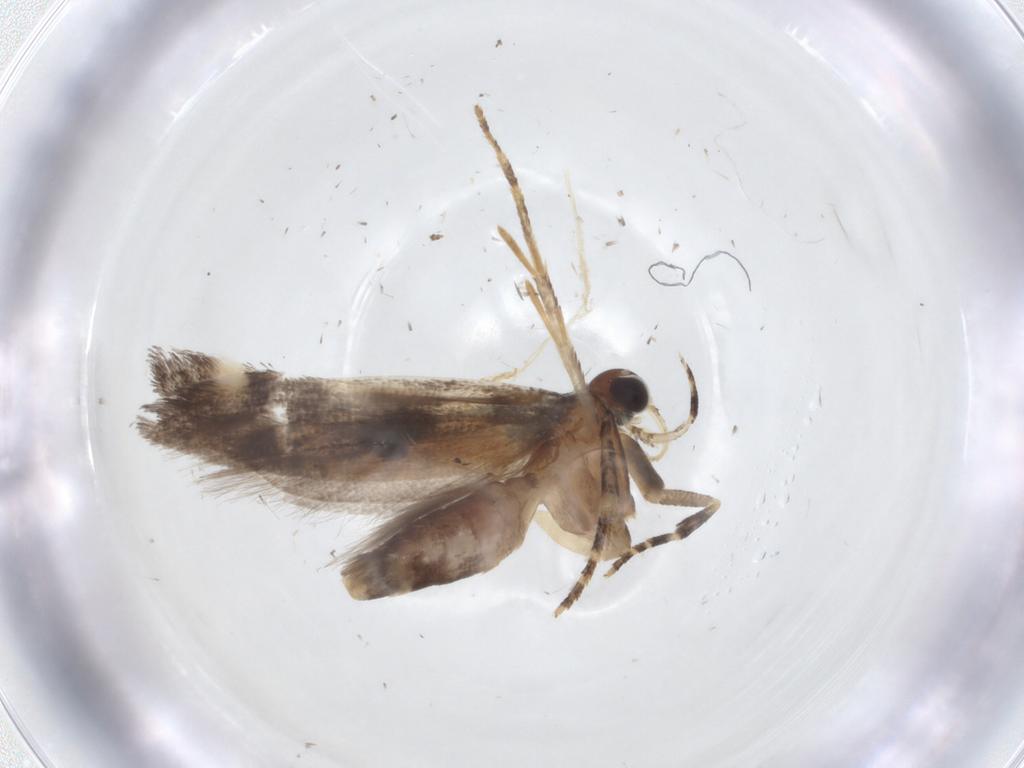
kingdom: Animalia
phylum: Arthropoda
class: Insecta
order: Lepidoptera
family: Gelechiidae
